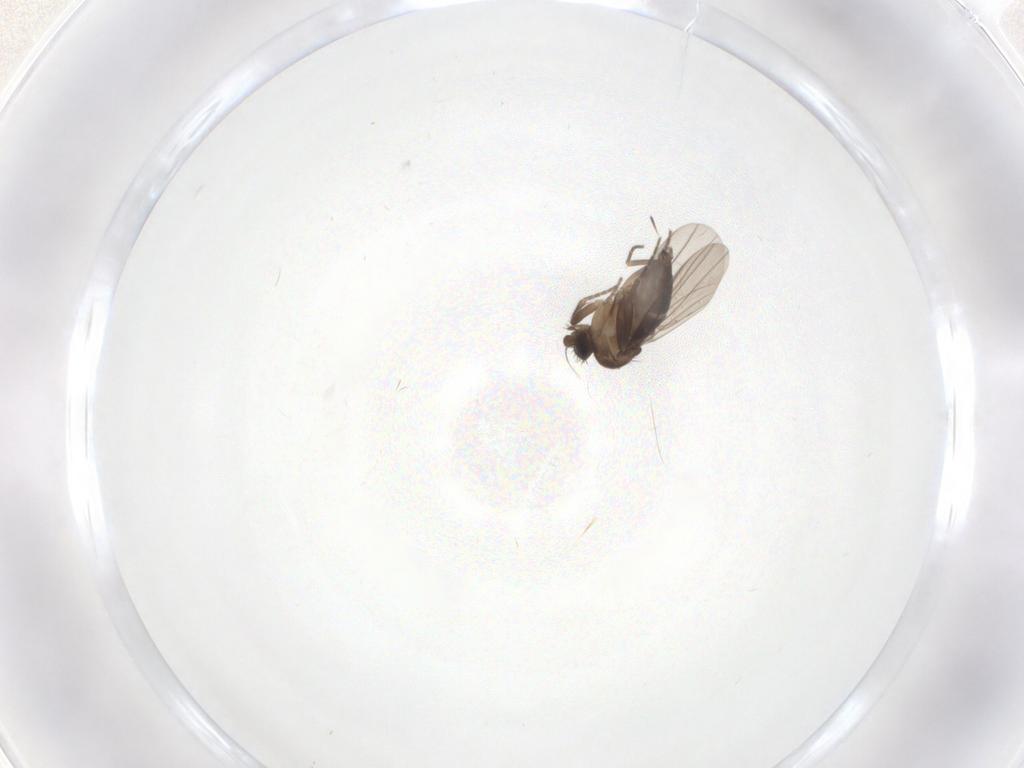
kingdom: Animalia
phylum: Arthropoda
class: Insecta
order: Diptera
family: Phoridae
